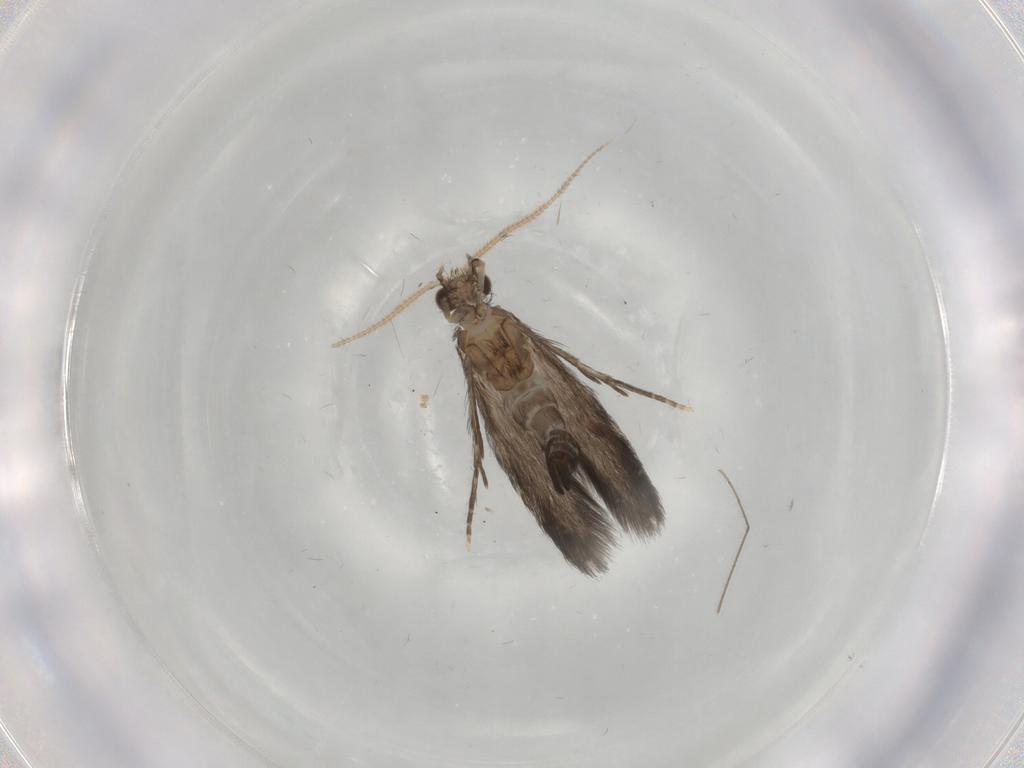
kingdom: Animalia
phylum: Arthropoda
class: Insecta
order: Trichoptera
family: Hydroptilidae
